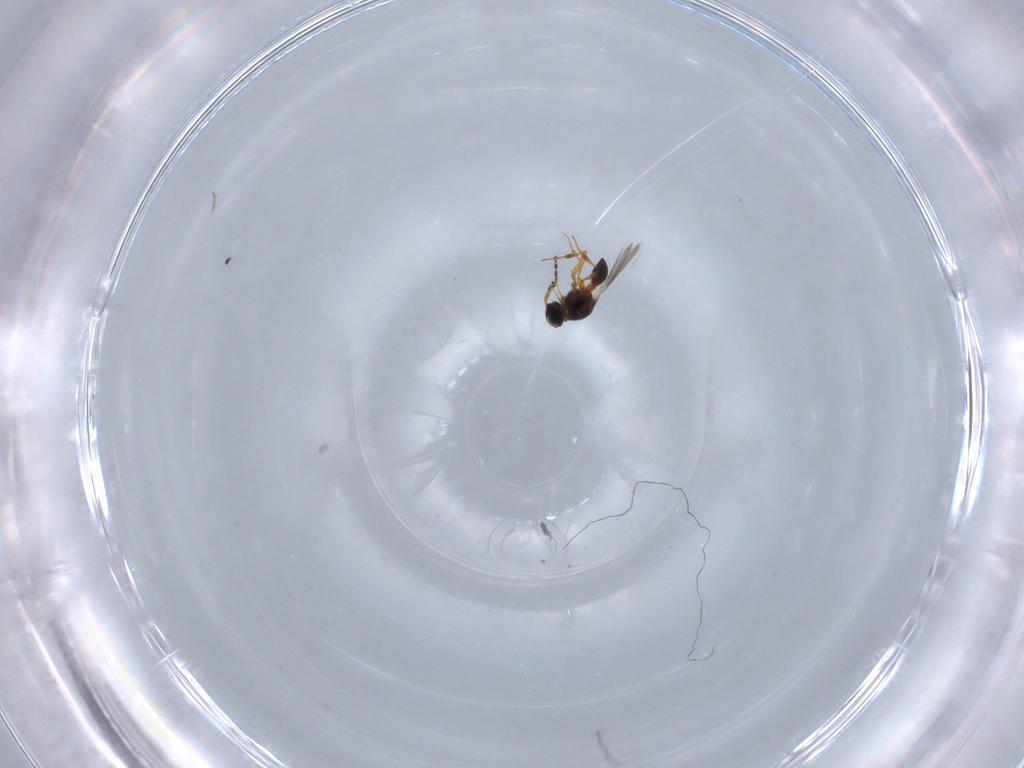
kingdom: Animalia
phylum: Arthropoda
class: Insecta
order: Hymenoptera
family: Platygastridae
